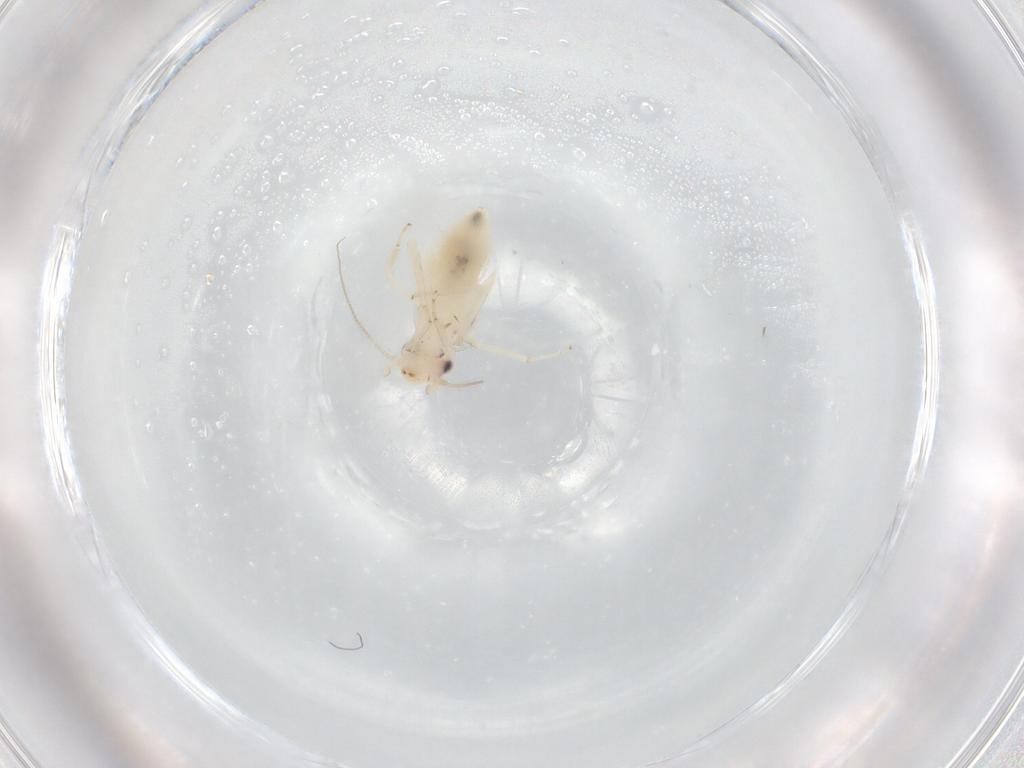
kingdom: Animalia
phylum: Arthropoda
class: Insecta
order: Psocodea
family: Lepidopsocidae
